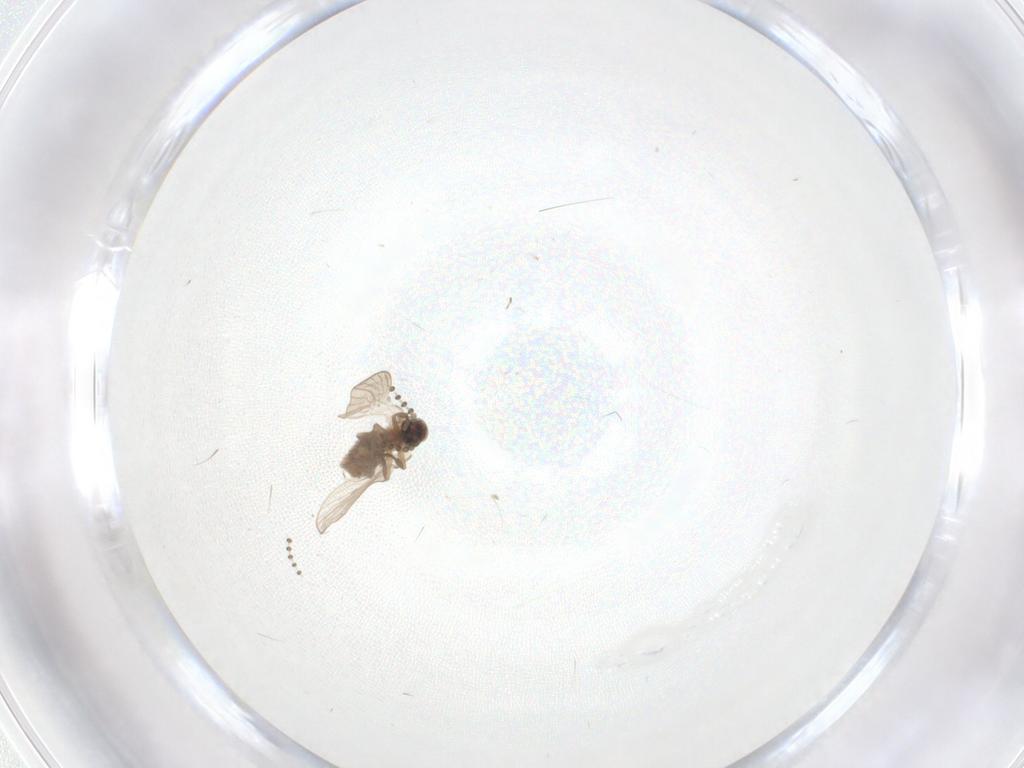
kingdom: Animalia
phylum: Arthropoda
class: Insecta
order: Diptera
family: Psychodidae
